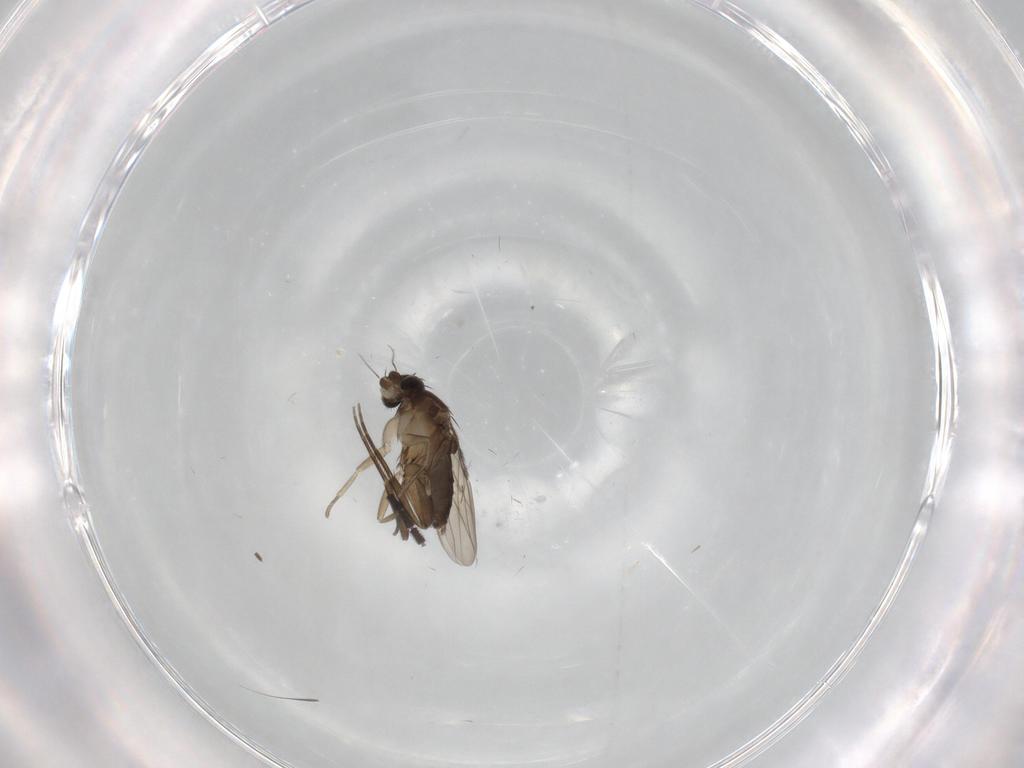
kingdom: Animalia
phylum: Arthropoda
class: Insecta
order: Diptera
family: Phoridae
